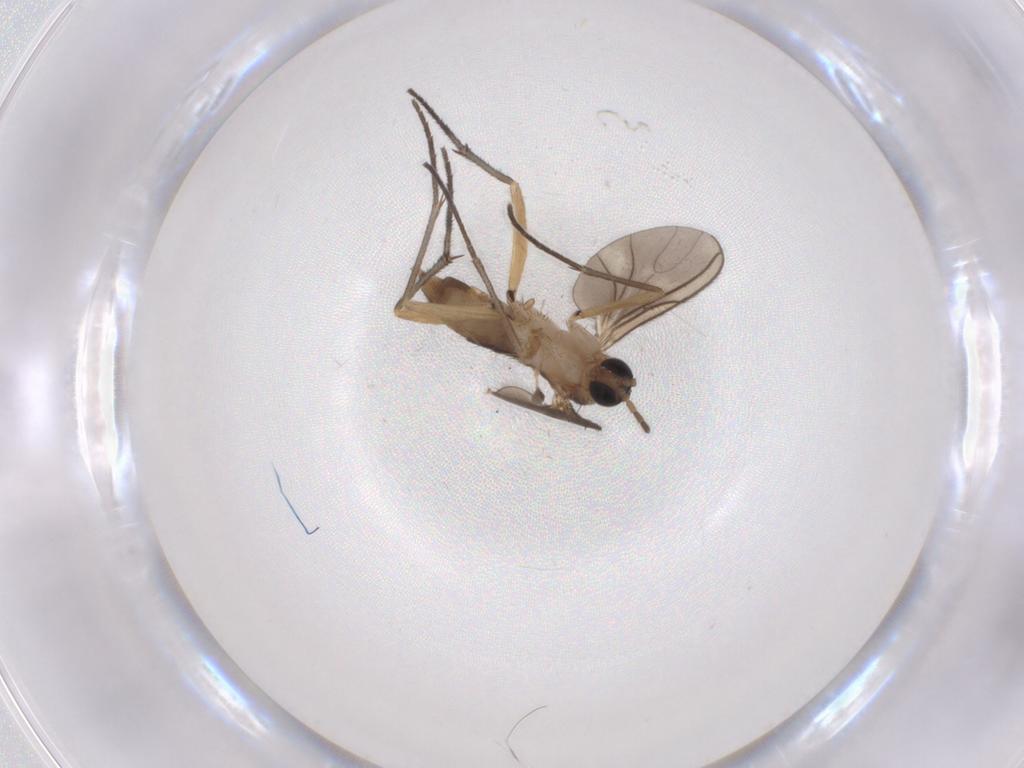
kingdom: Animalia
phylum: Arthropoda
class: Insecta
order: Diptera
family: Sciaridae
